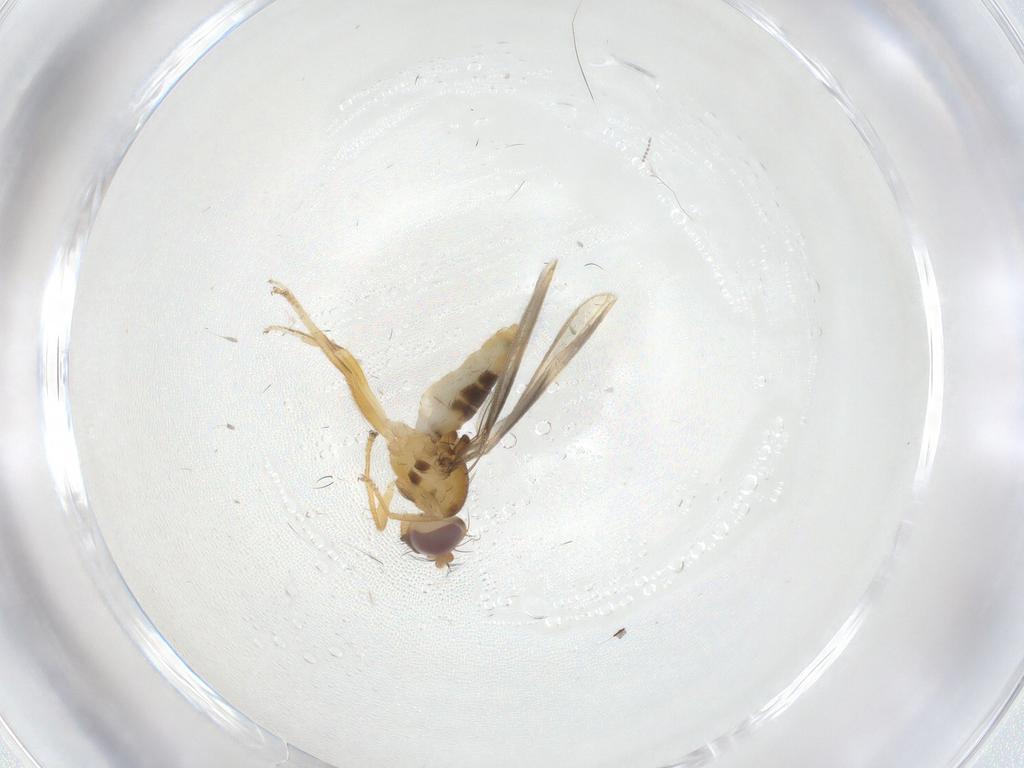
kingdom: Animalia
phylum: Arthropoda
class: Insecta
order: Diptera
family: Periscelididae
